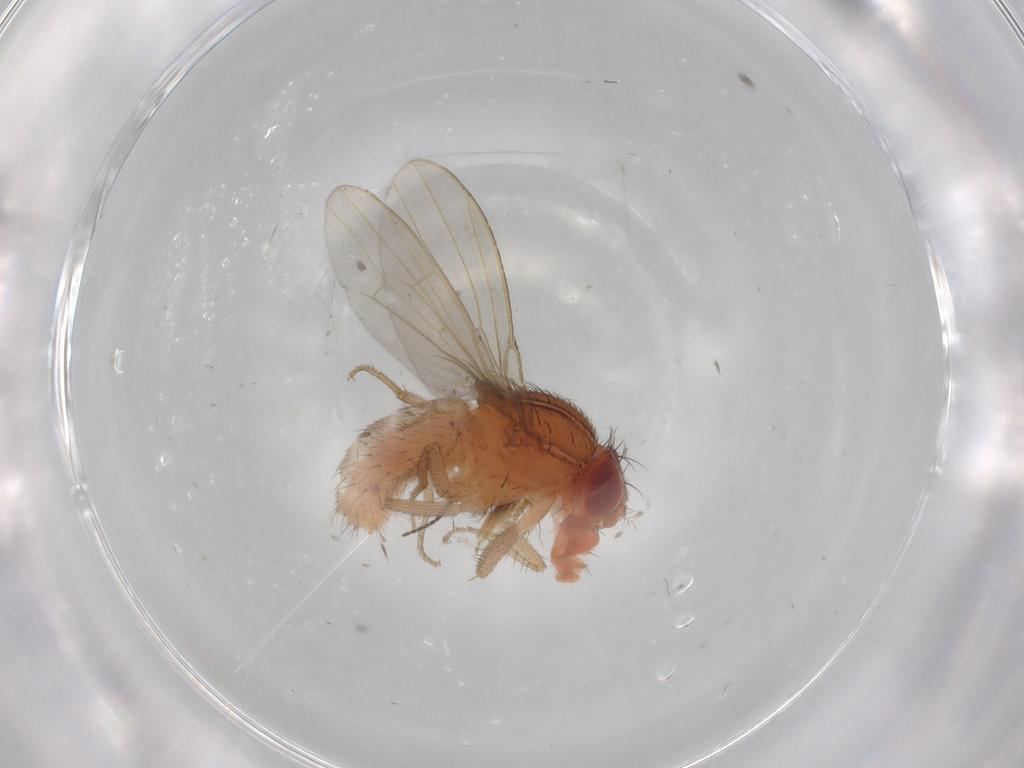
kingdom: Animalia
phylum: Arthropoda
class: Insecta
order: Diptera
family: Drosophilidae
